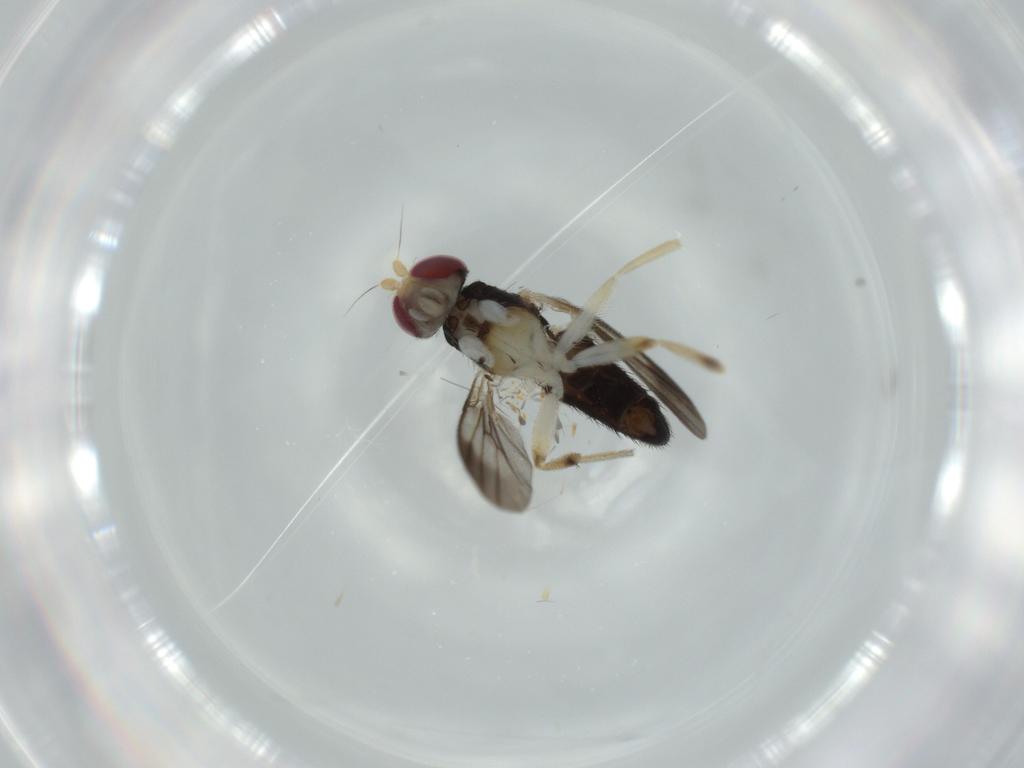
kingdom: Animalia
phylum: Arthropoda
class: Insecta
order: Diptera
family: Clusiidae
